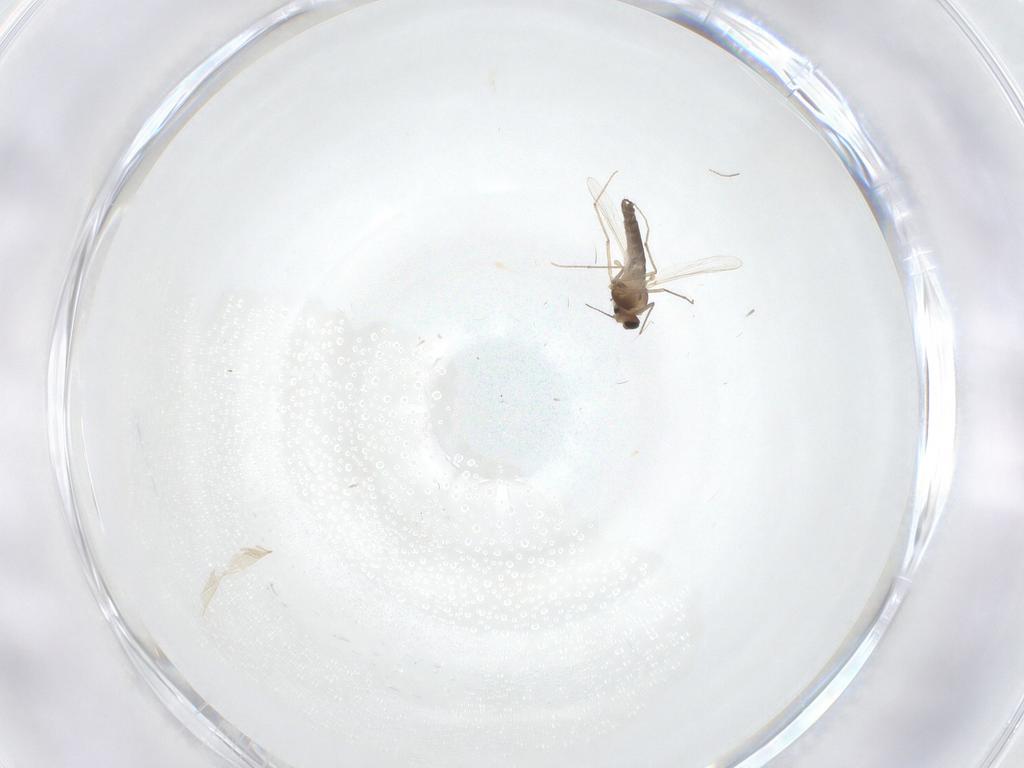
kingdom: Animalia
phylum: Arthropoda
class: Insecta
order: Diptera
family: Chironomidae
